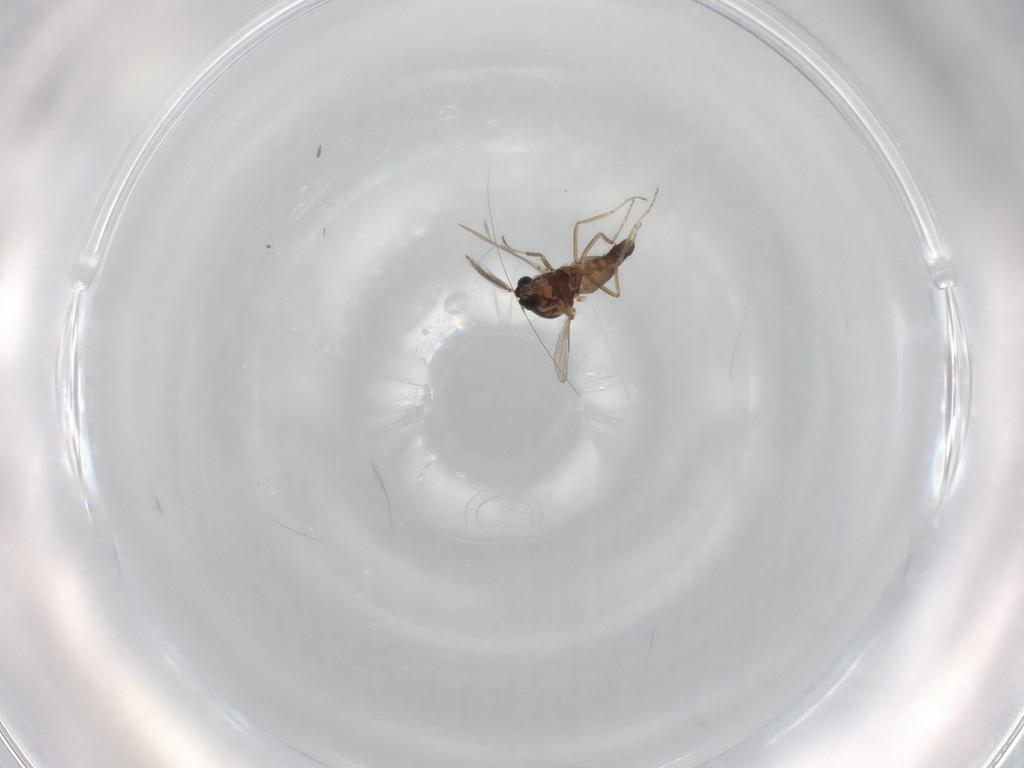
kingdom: Animalia
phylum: Arthropoda
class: Insecta
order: Diptera
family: Ceratopogonidae
